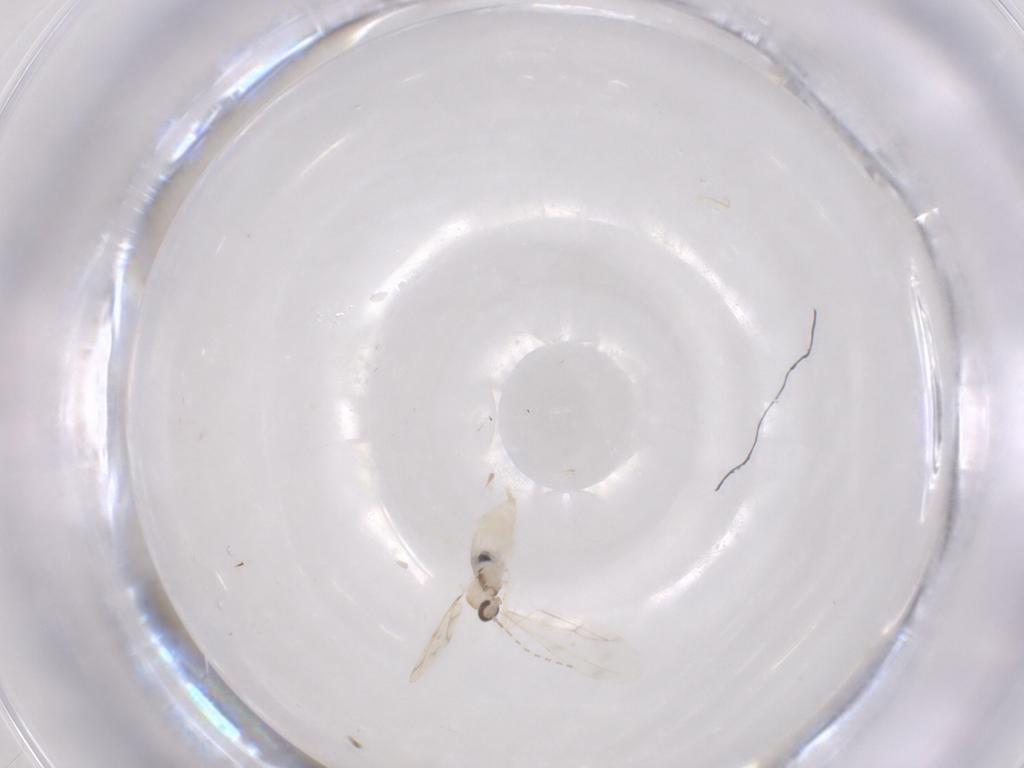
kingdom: Animalia
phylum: Arthropoda
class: Insecta
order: Diptera
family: Cecidomyiidae
